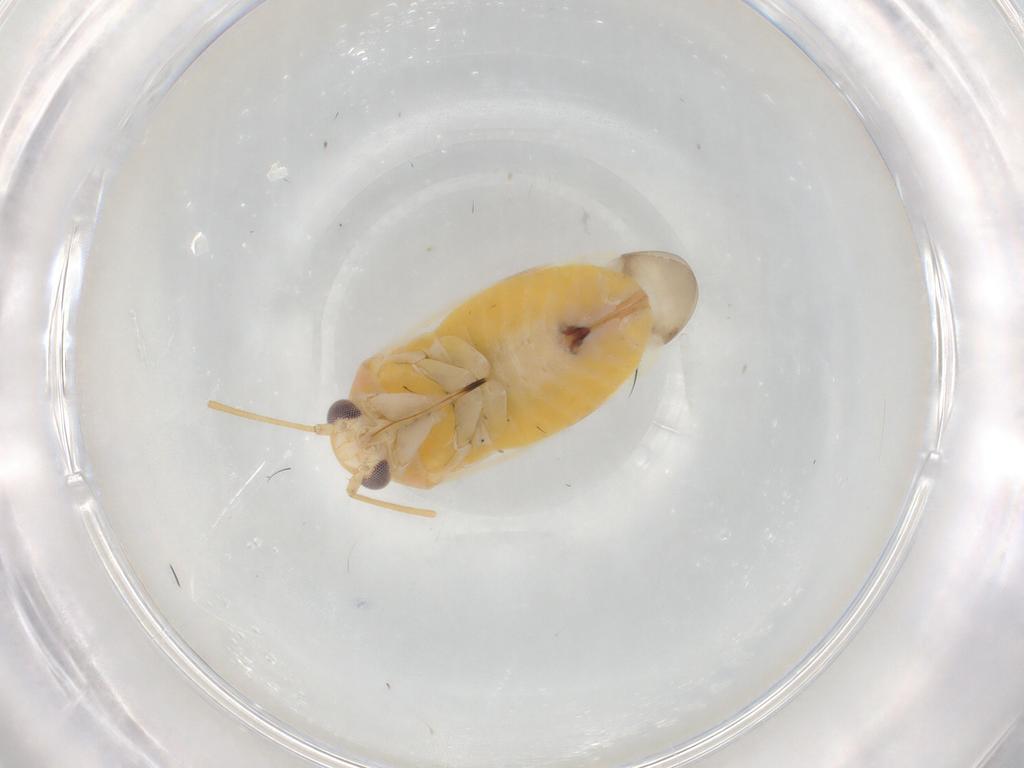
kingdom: Animalia
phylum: Arthropoda
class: Insecta
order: Hemiptera
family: Miridae
